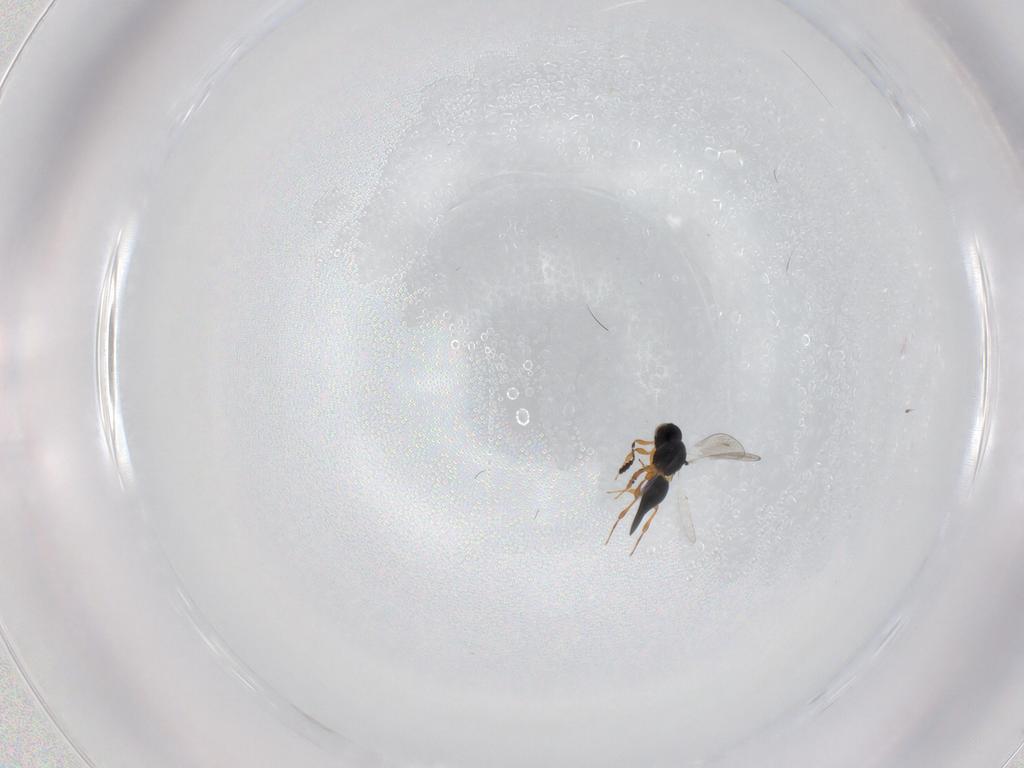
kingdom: Animalia
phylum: Arthropoda
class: Insecta
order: Hymenoptera
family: Platygastridae
